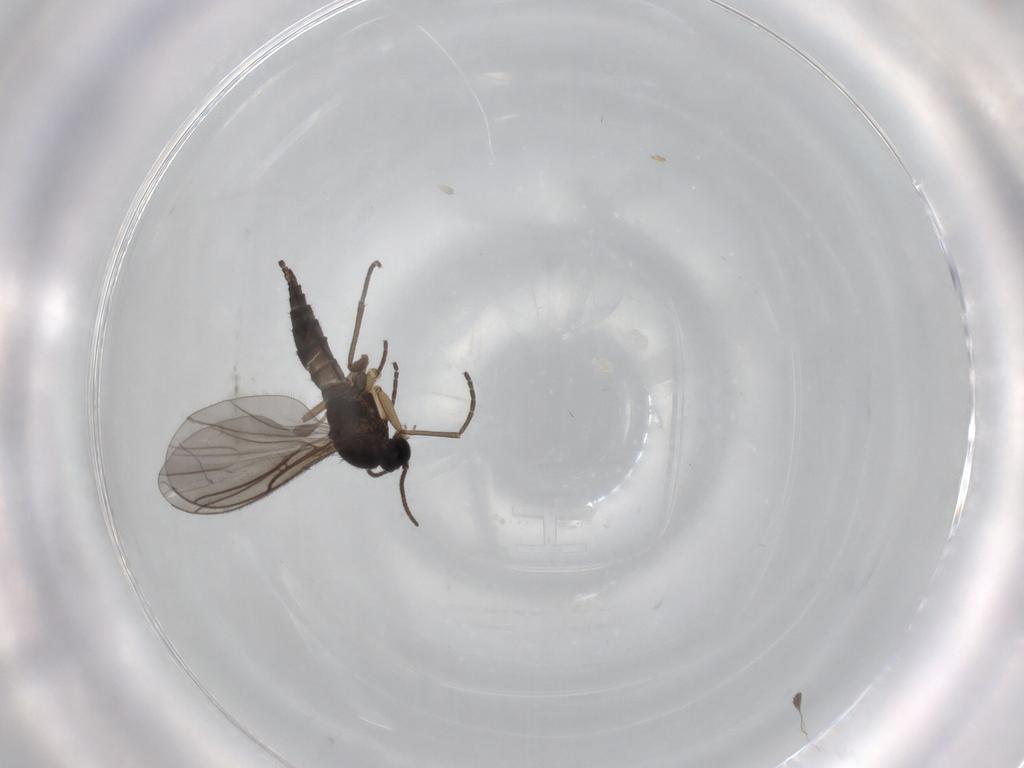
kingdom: Animalia
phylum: Arthropoda
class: Insecta
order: Diptera
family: Sciaridae
